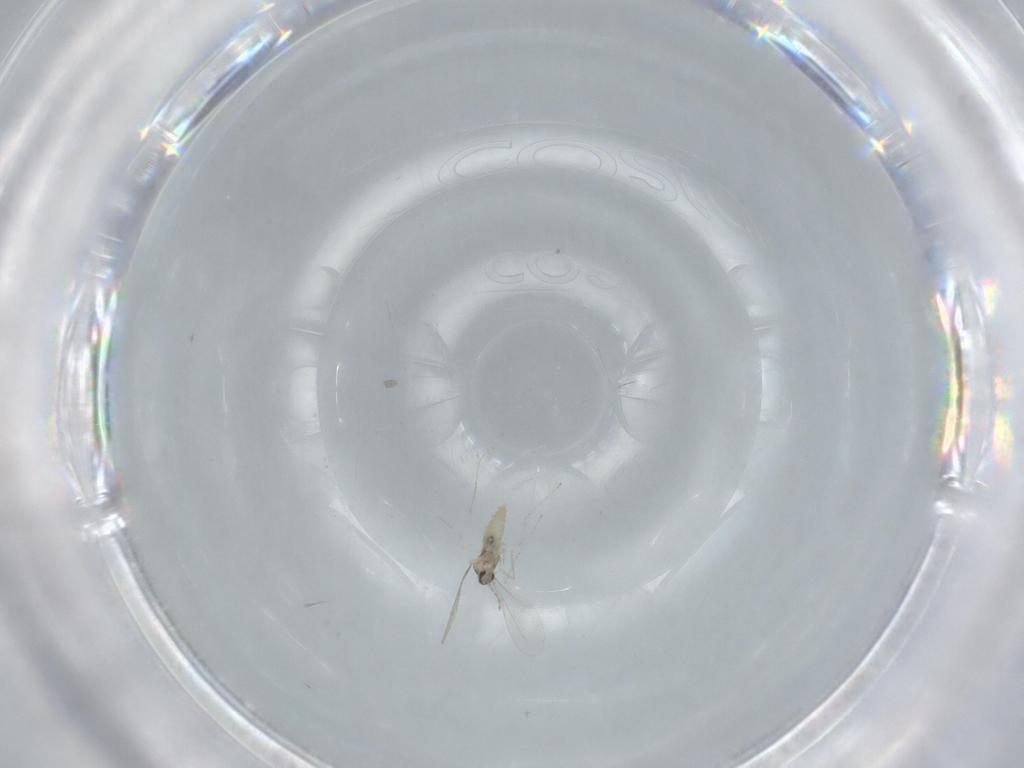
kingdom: Animalia
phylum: Arthropoda
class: Insecta
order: Diptera
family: Cecidomyiidae
